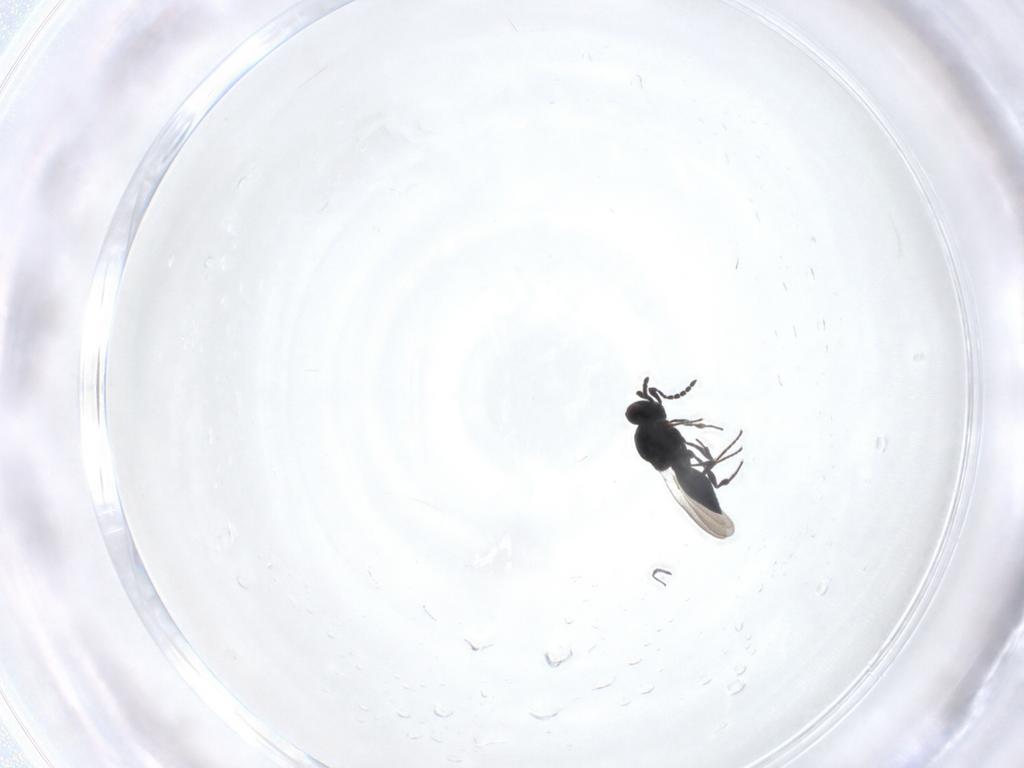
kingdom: Animalia
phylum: Arthropoda
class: Insecta
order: Hymenoptera
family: Platygastridae
